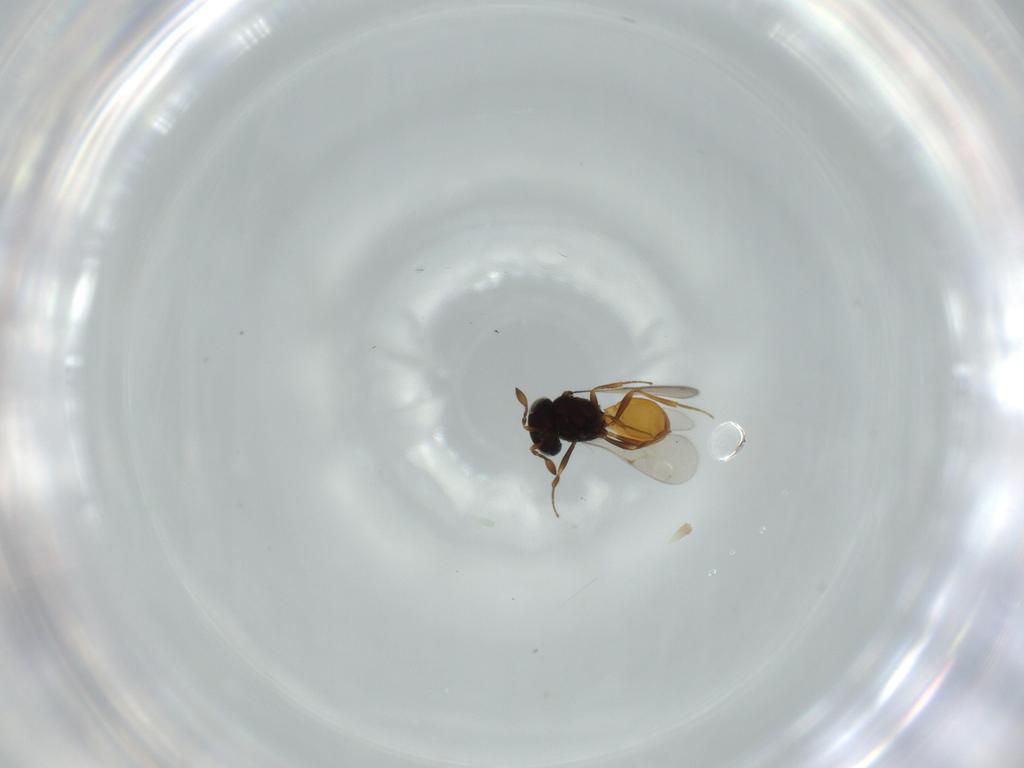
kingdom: Animalia
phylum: Arthropoda
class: Insecta
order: Hymenoptera
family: Scelionidae
